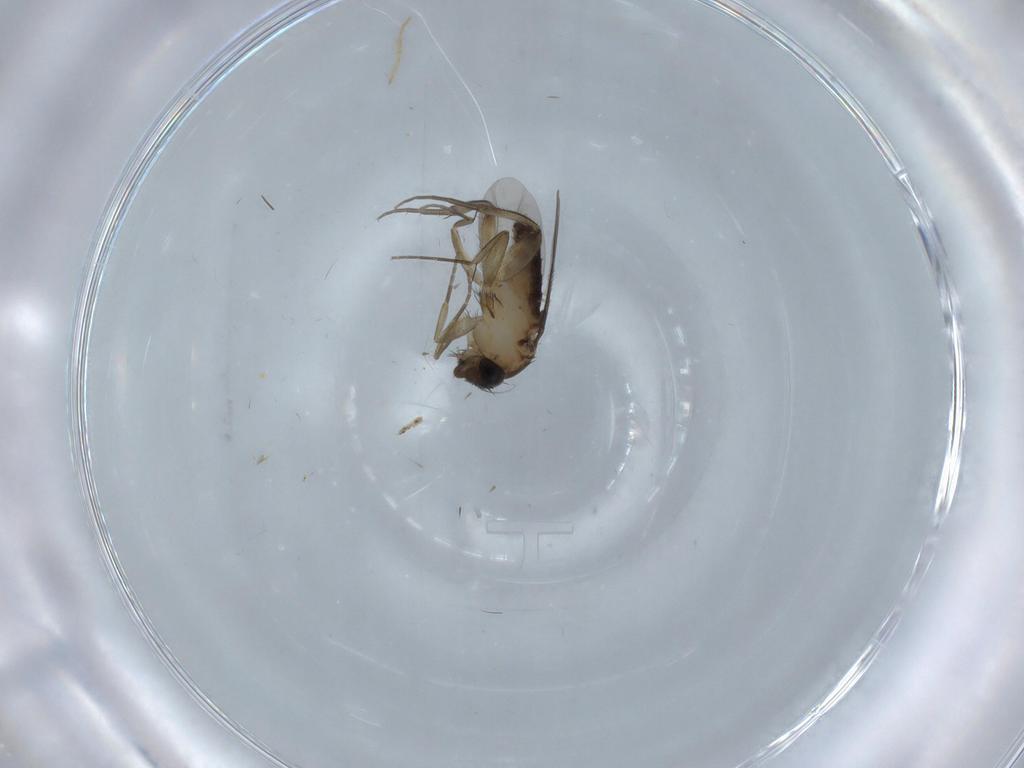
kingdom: Animalia
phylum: Arthropoda
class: Insecta
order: Diptera
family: Phoridae
